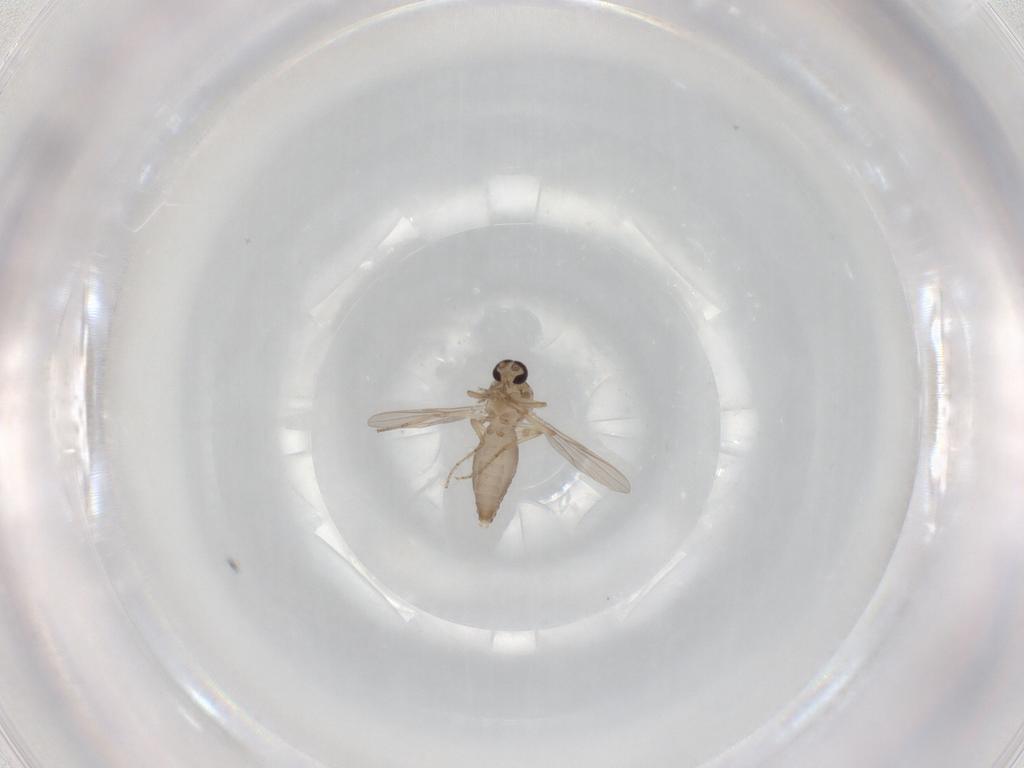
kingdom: Animalia
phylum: Arthropoda
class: Insecta
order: Diptera
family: Ceratopogonidae
